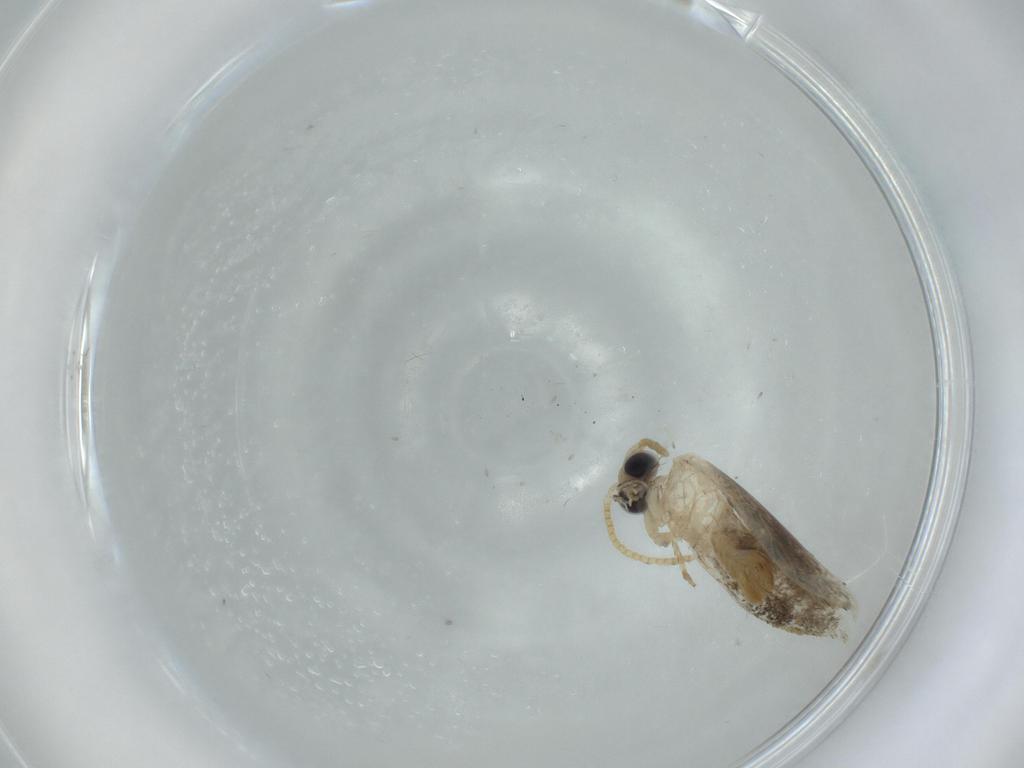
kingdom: Animalia
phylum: Arthropoda
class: Insecta
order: Lepidoptera
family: Tineidae
